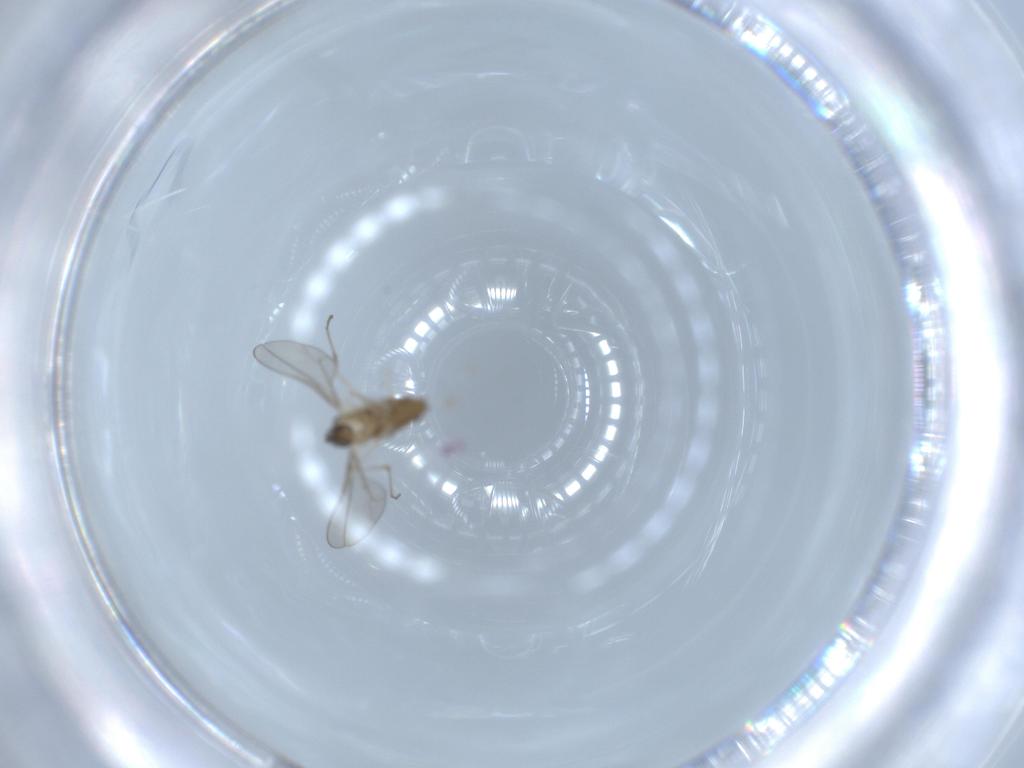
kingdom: Animalia
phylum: Arthropoda
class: Insecta
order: Diptera
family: Cecidomyiidae
